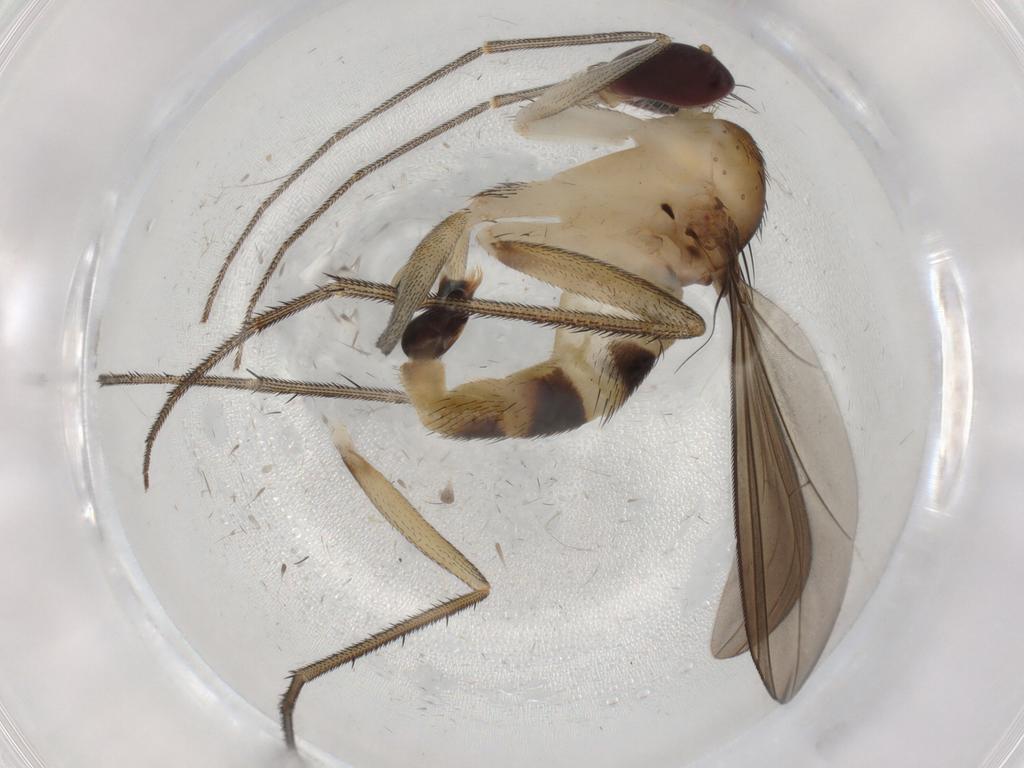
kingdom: Animalia
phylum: Arthropoda
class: Insecta
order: Diptera
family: Dolichopodidae
